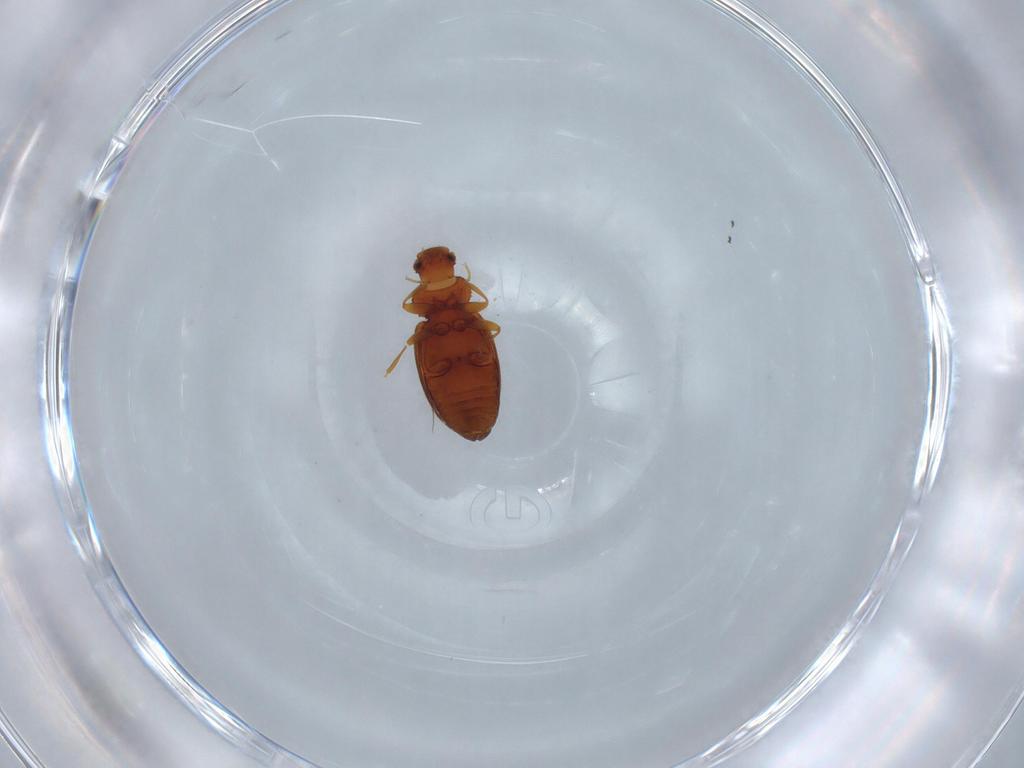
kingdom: Animalia
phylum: Arthropoda
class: Insecta
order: Coleoptera
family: Latridiidae
